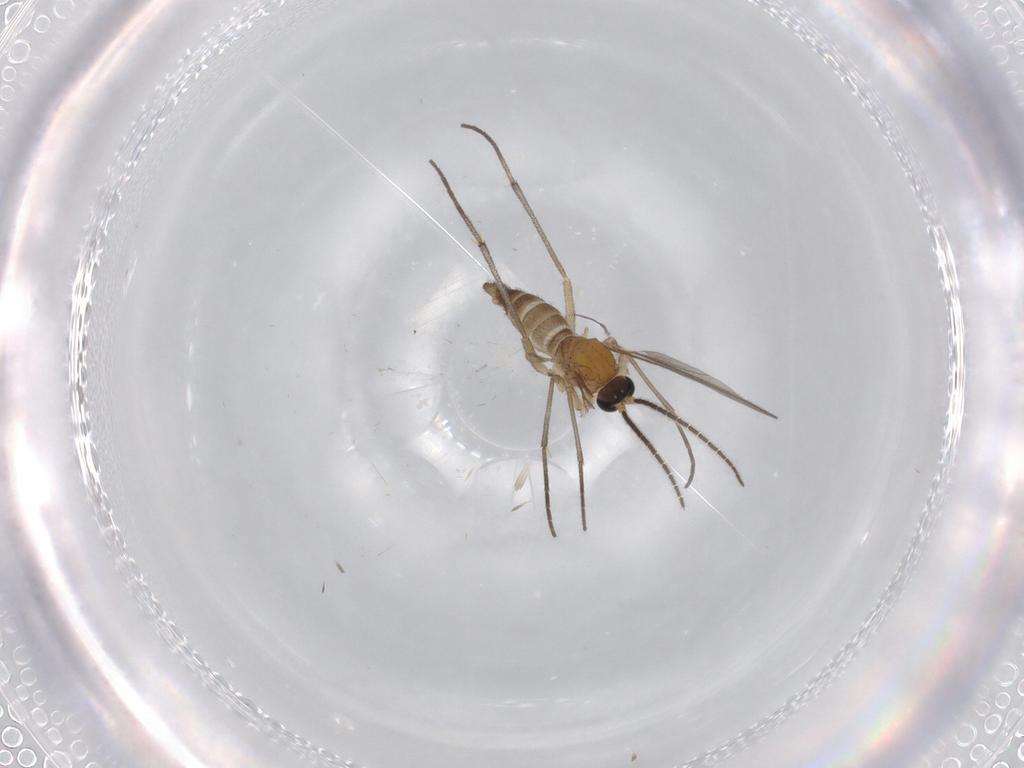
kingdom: Animalia
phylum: Arthropoda
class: Insecta
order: Diptera
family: Sciaridae
